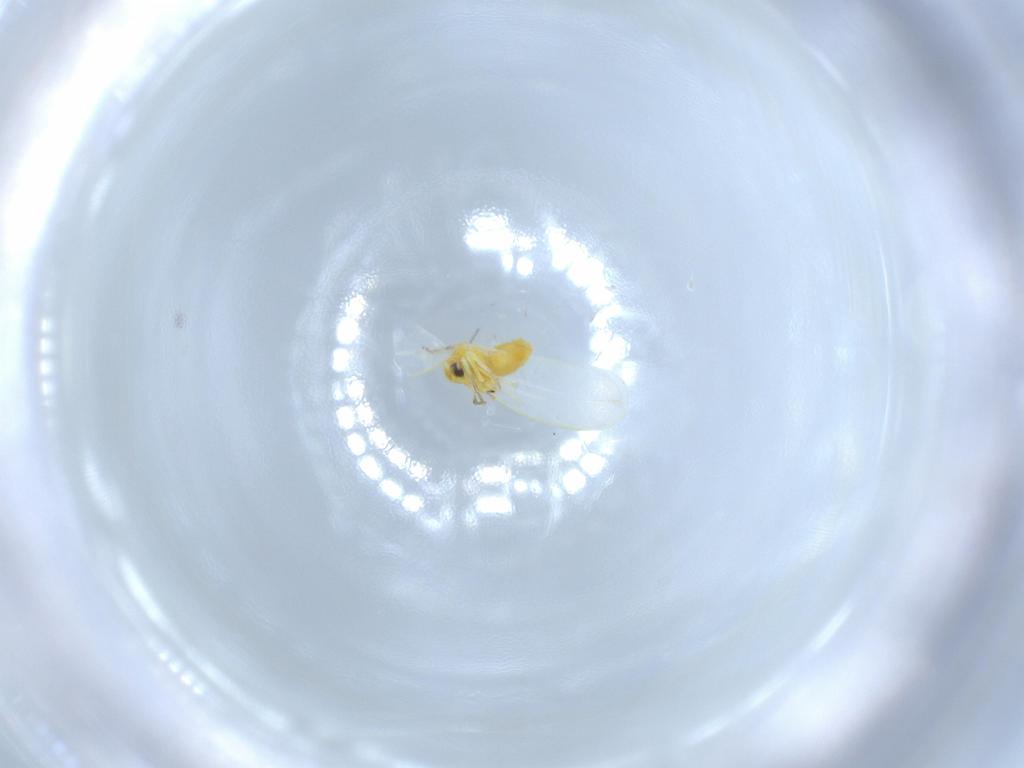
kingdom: Animalia
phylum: Arthropoda
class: Insecta
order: Hemiptera
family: Aleyrodidae
